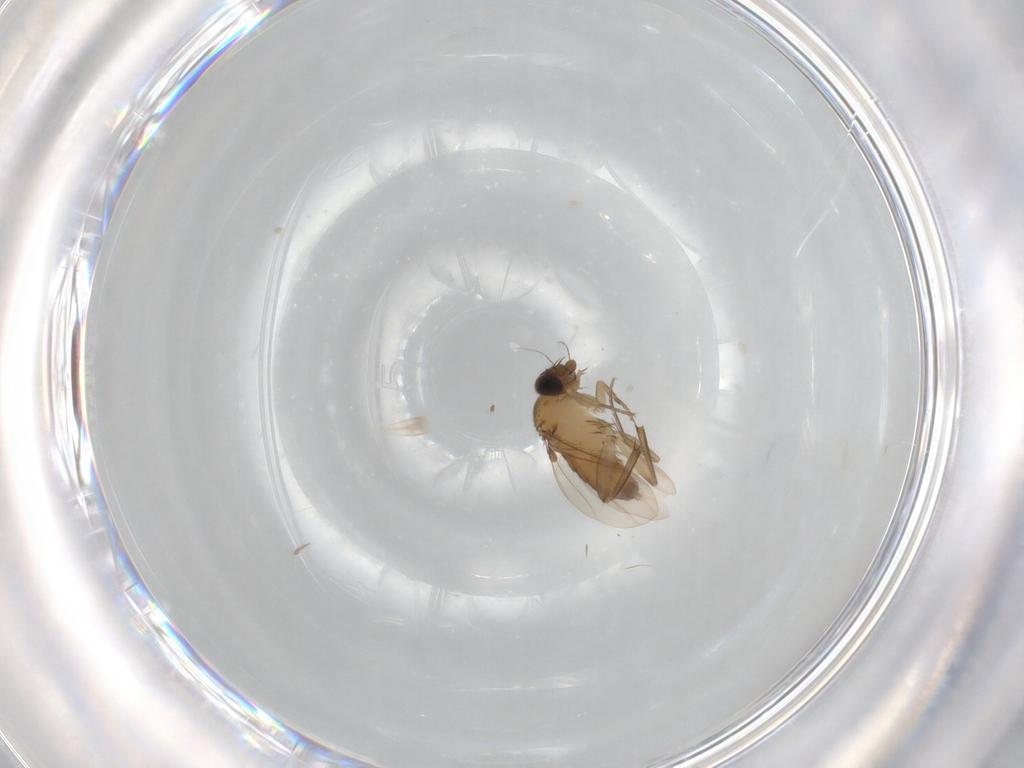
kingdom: Animalia
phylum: Arthropoda
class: Insecta
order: Diptera
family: Phoridae
